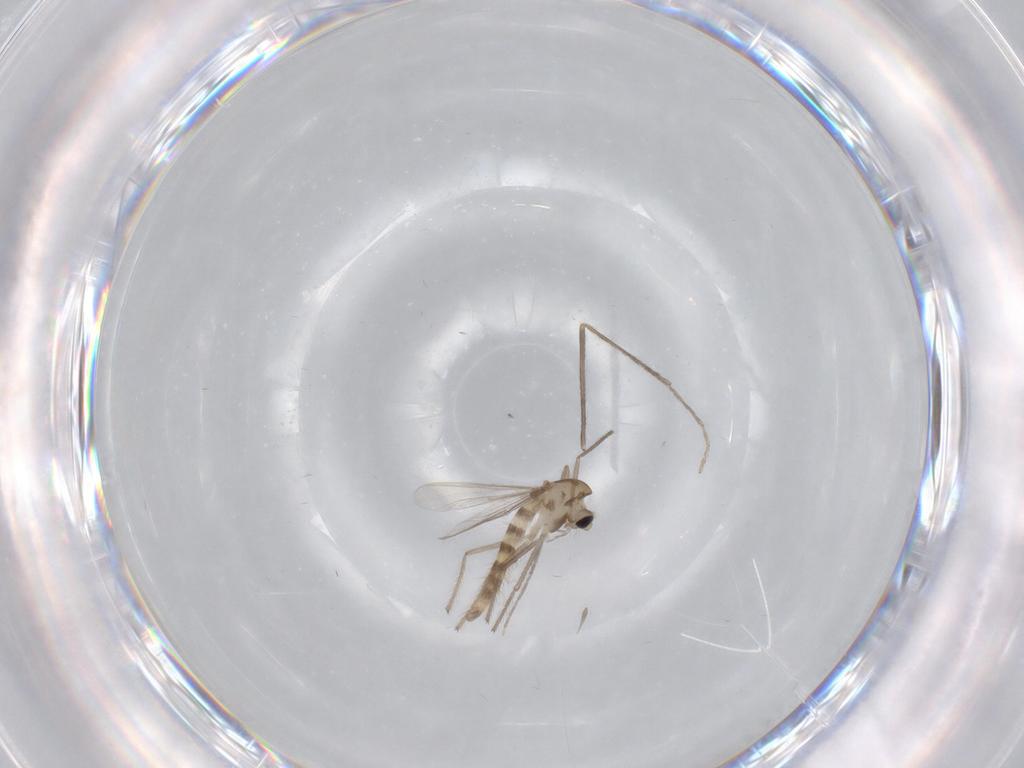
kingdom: Animalia
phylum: Arthropoda
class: Insecta
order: Diptera
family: Chironomidae
